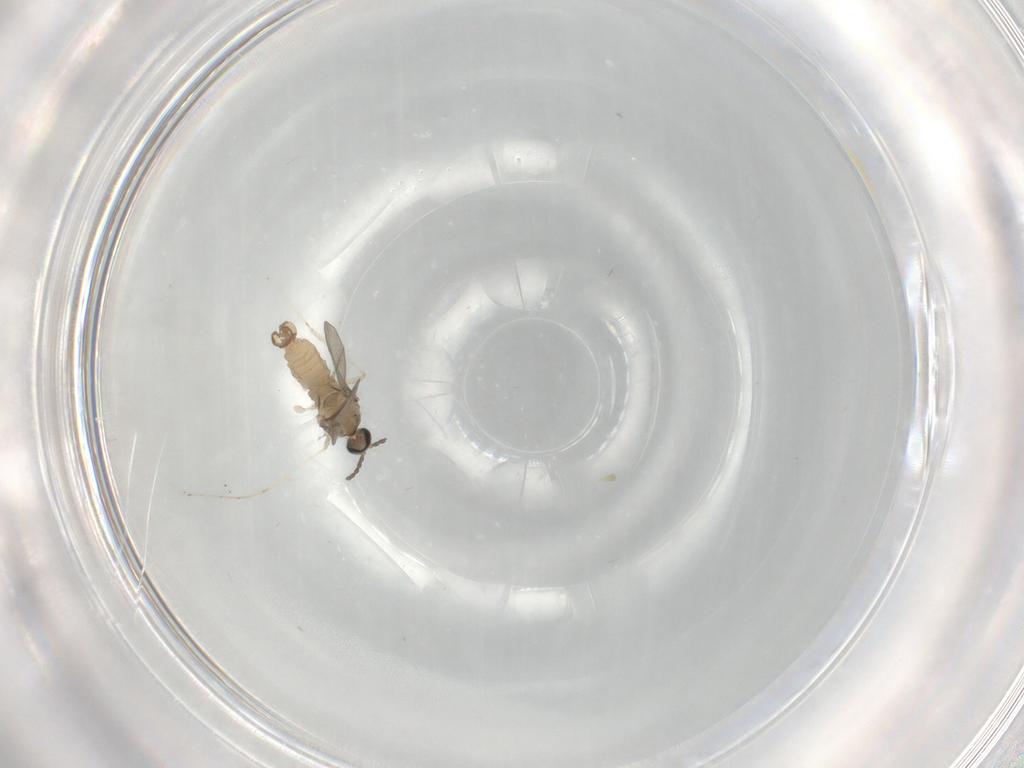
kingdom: Animalia
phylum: Arthropoda
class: Insecta
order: Diptera
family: Cecidomyiidae
